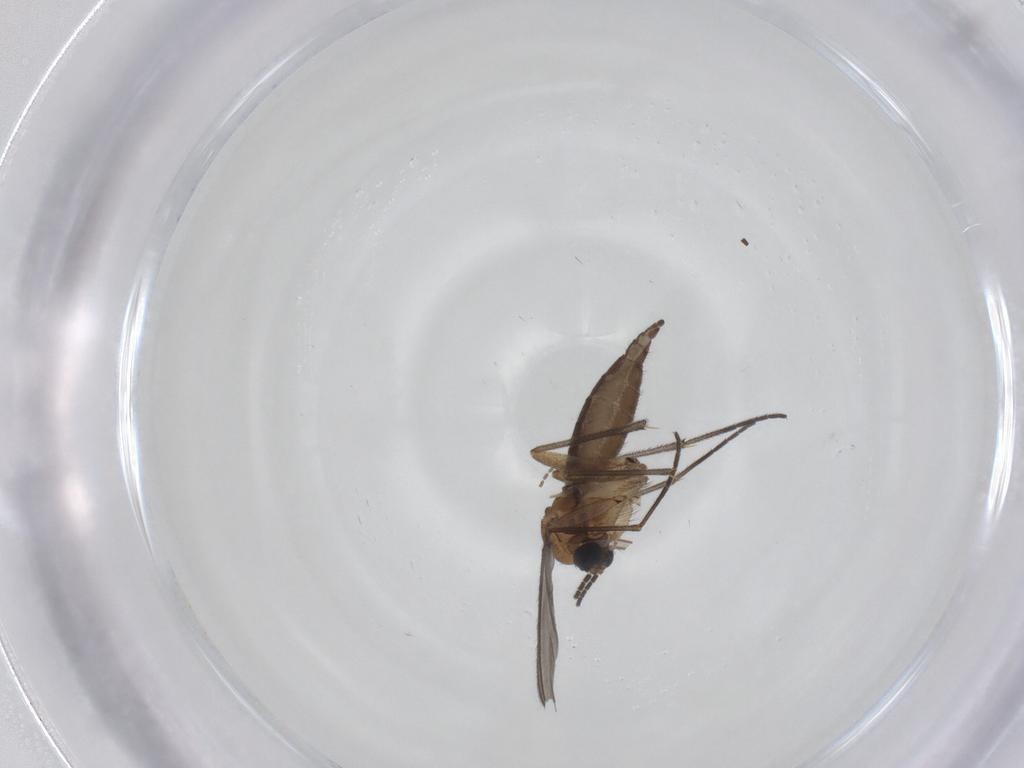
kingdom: Animalia
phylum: Arthropoda
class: Insecta
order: Diptera
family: Sciaridae
